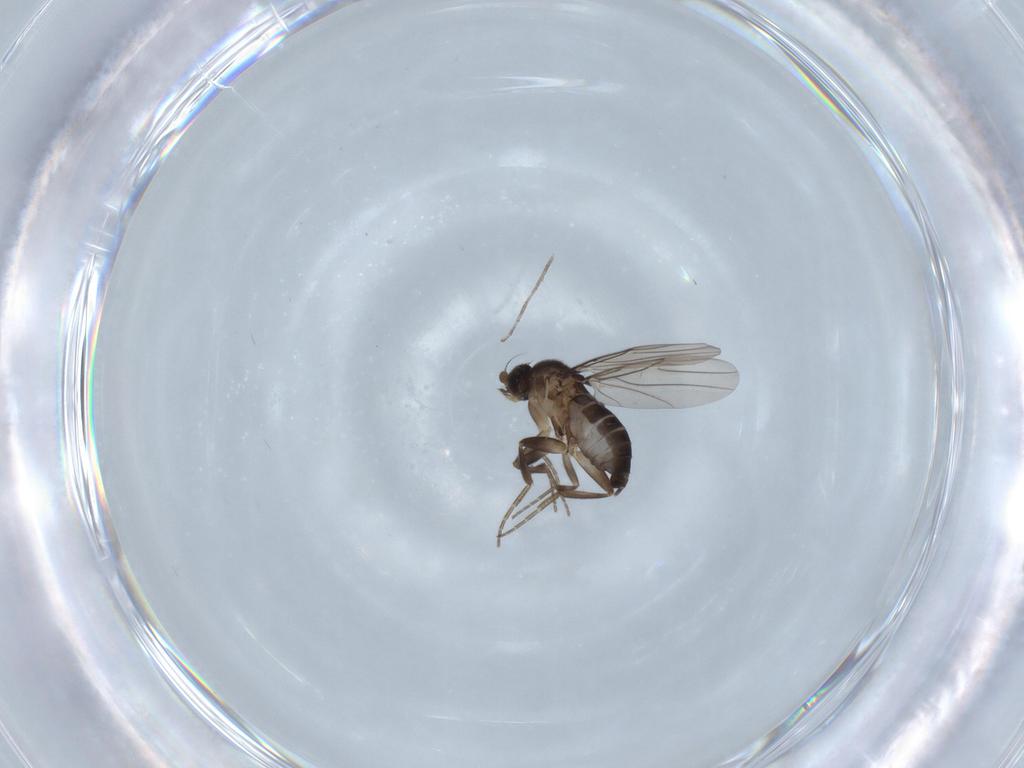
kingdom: Animalia
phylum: Arthropoda
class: Insecta
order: Diptera
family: Phoridae
